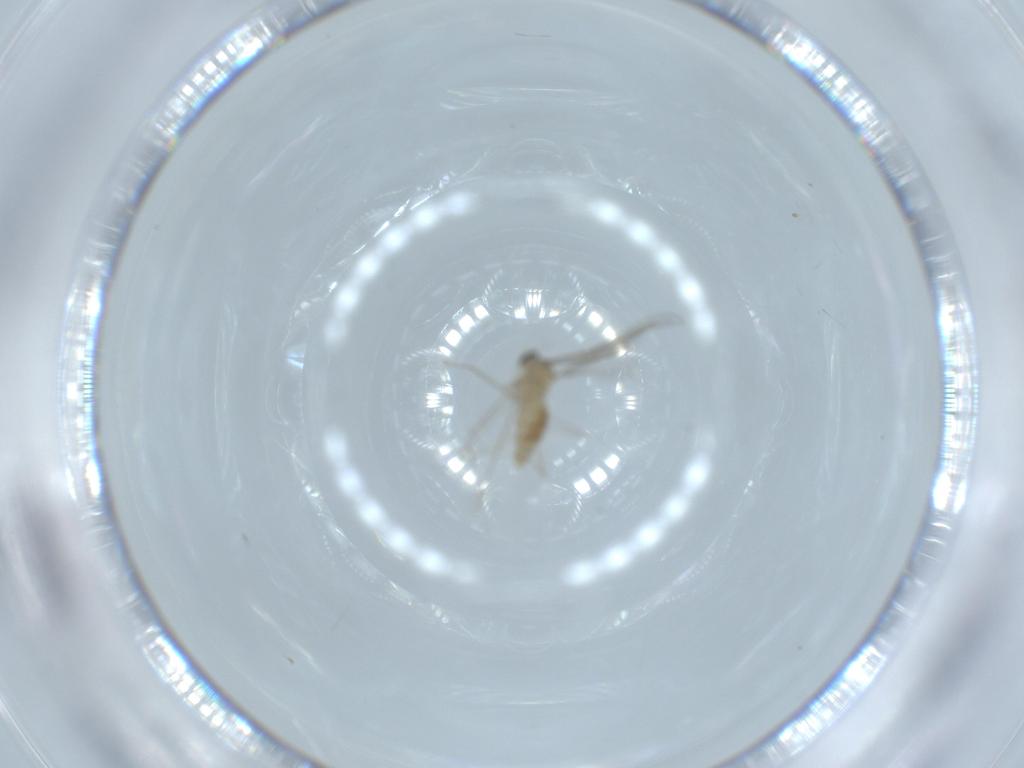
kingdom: Animalia
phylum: Arthropoda
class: Insecta
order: Diptera
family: Cecidomyiidae
